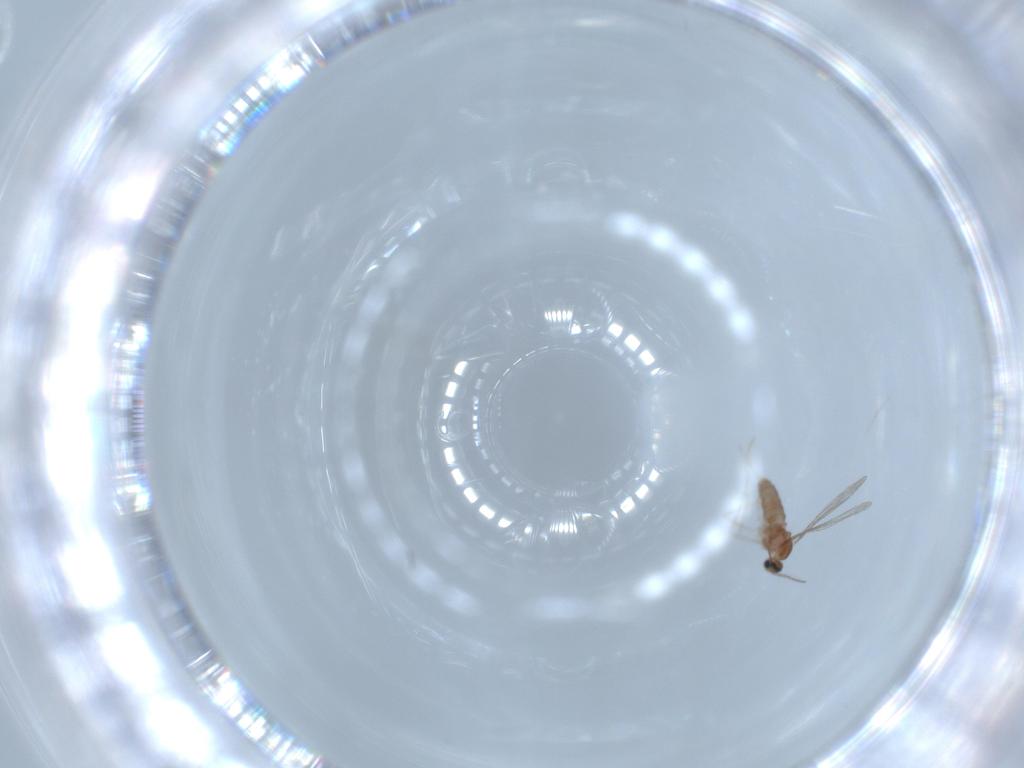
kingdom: Animalia
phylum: Arthropoda
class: Insecta
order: Diptera
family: Cecidomyiidae
